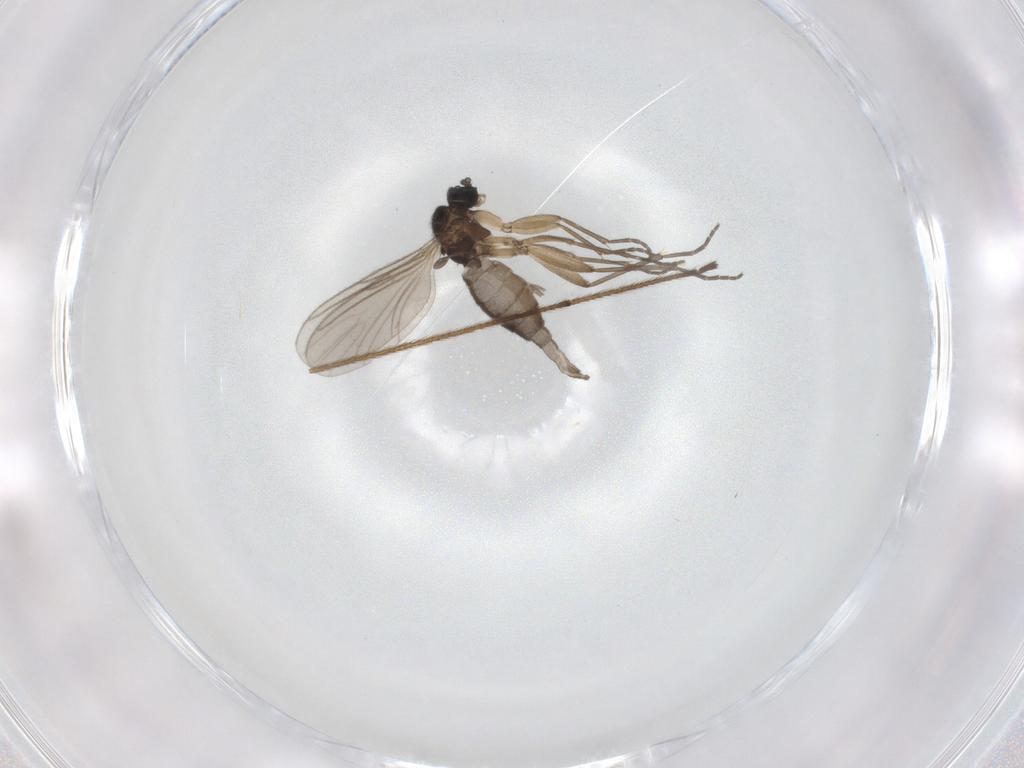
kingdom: Animalia
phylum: Arthropoda
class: Insecta
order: Diptera
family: Sciaridae
